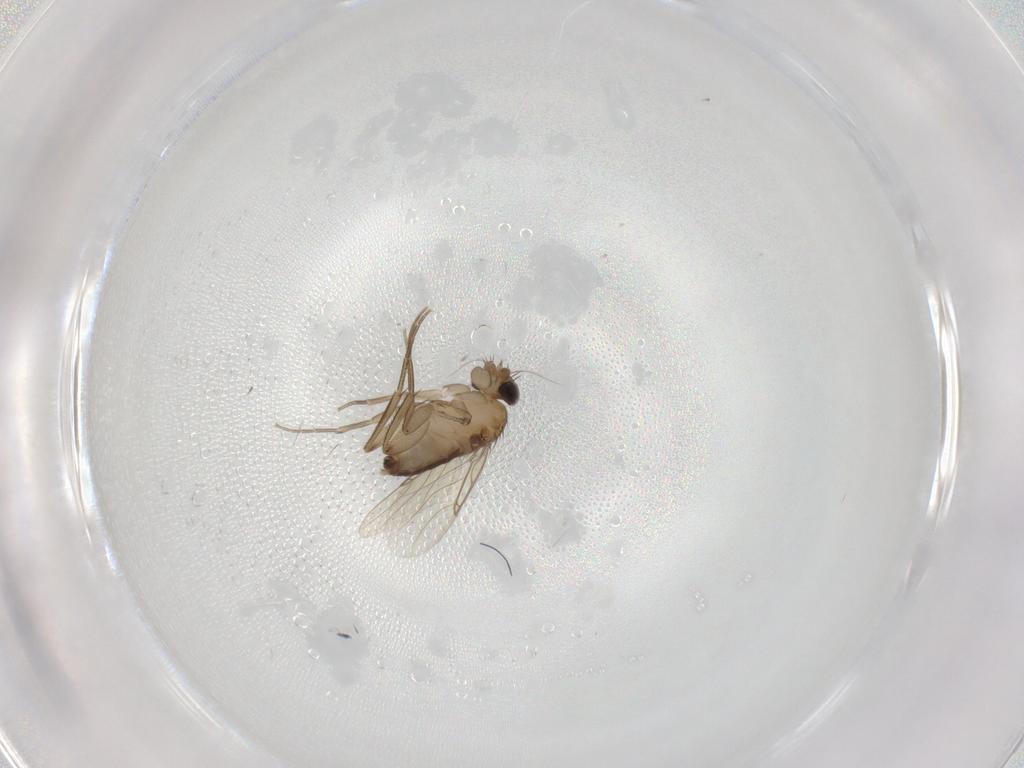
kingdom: Animalia
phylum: Arthropoda
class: Insecta
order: Diptera
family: Phoridae
